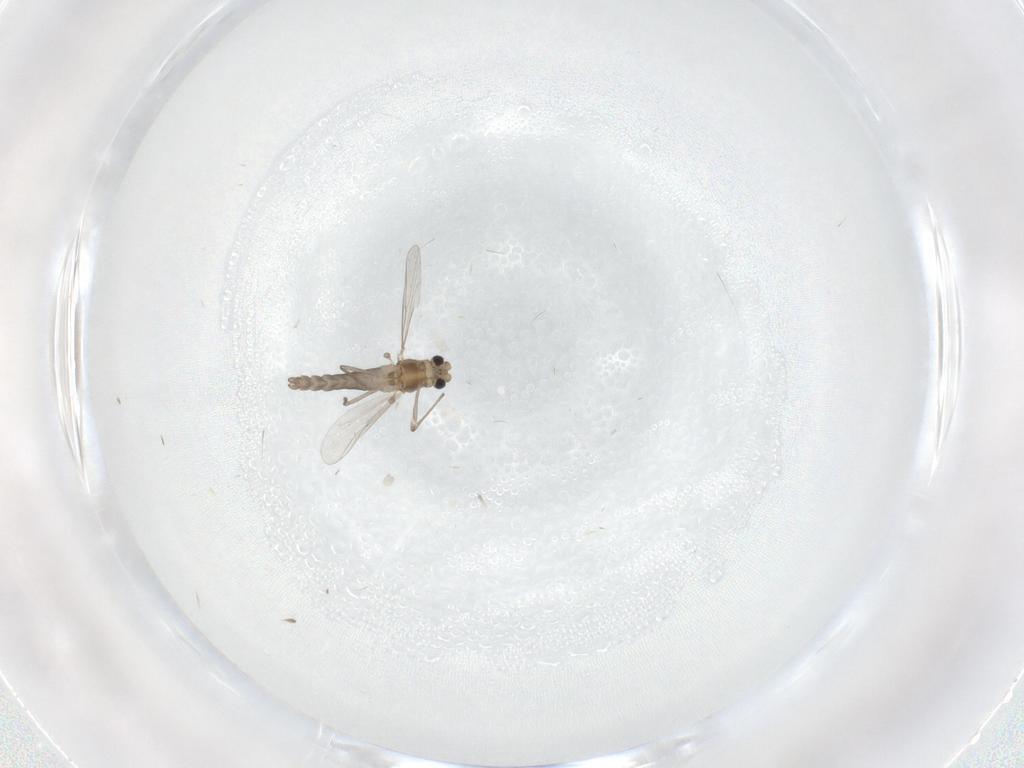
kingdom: Animalia
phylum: Arthropoda
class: Insecta
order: Diptera
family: Chironomidae
